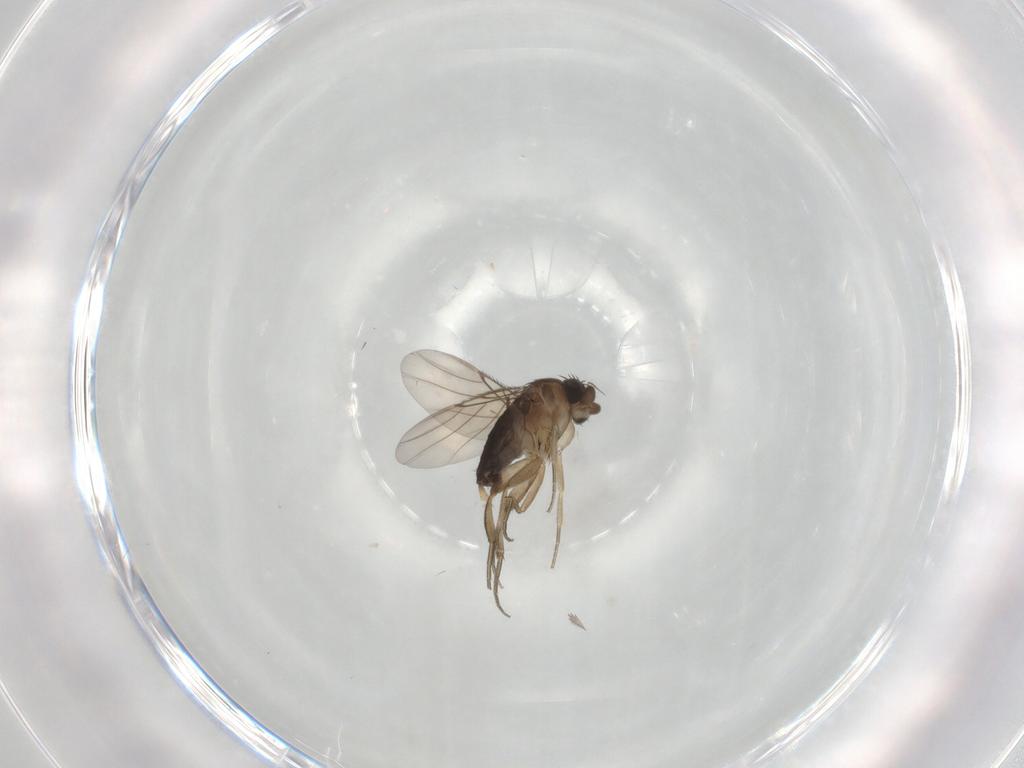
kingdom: Animalia
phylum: Arthropoda
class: Insecta
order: Diptera
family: Phoridae
